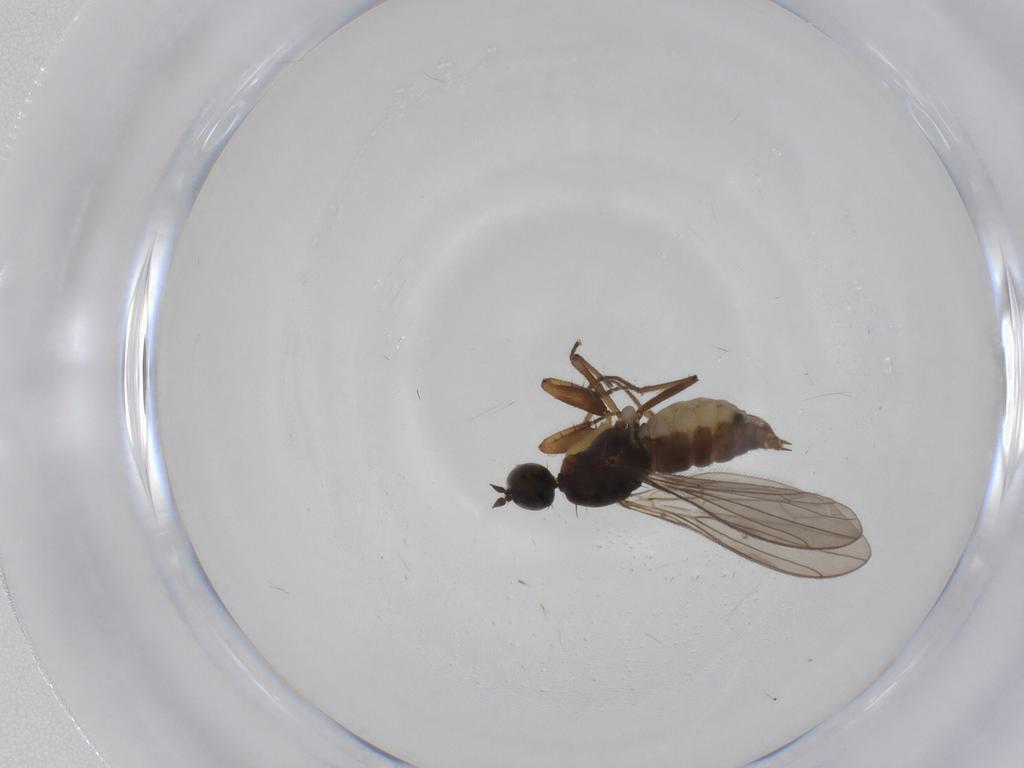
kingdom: Animalia
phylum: Arthropoda
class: Insecta
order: Diptera
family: Empididae
